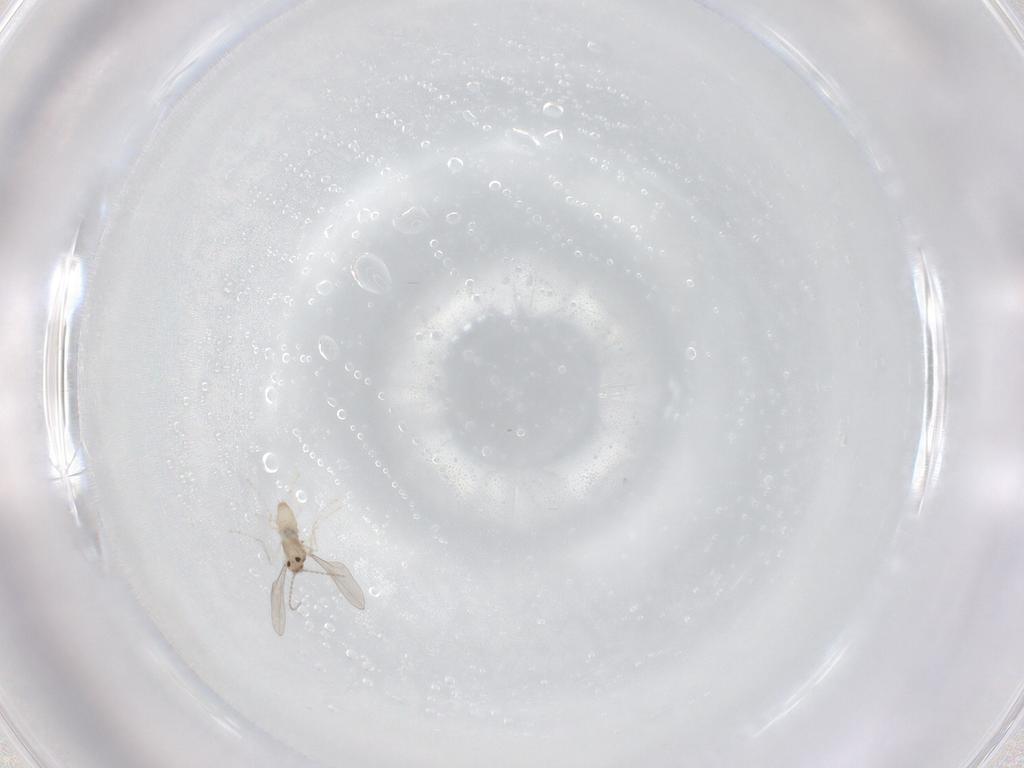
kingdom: Animalia
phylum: Arthropoda
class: Insecta
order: Diptera
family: Cecidomyiidae
